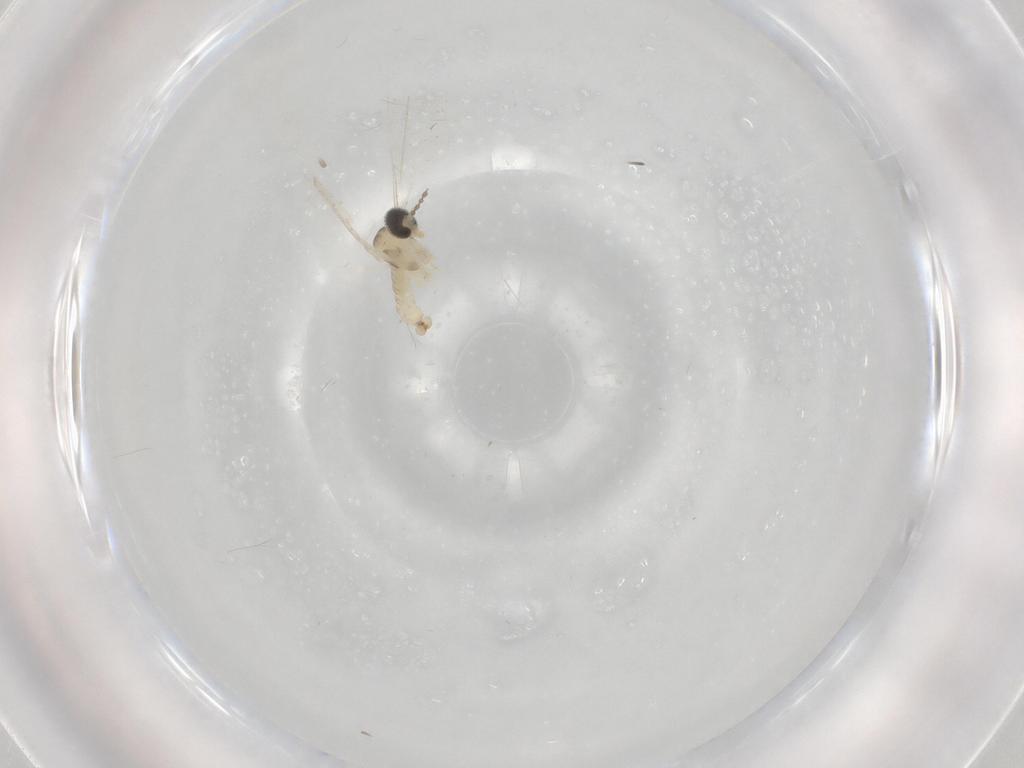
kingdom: Animalia
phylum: Arthropoda
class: Insecta
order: Diptera
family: Cecidomyiidae
